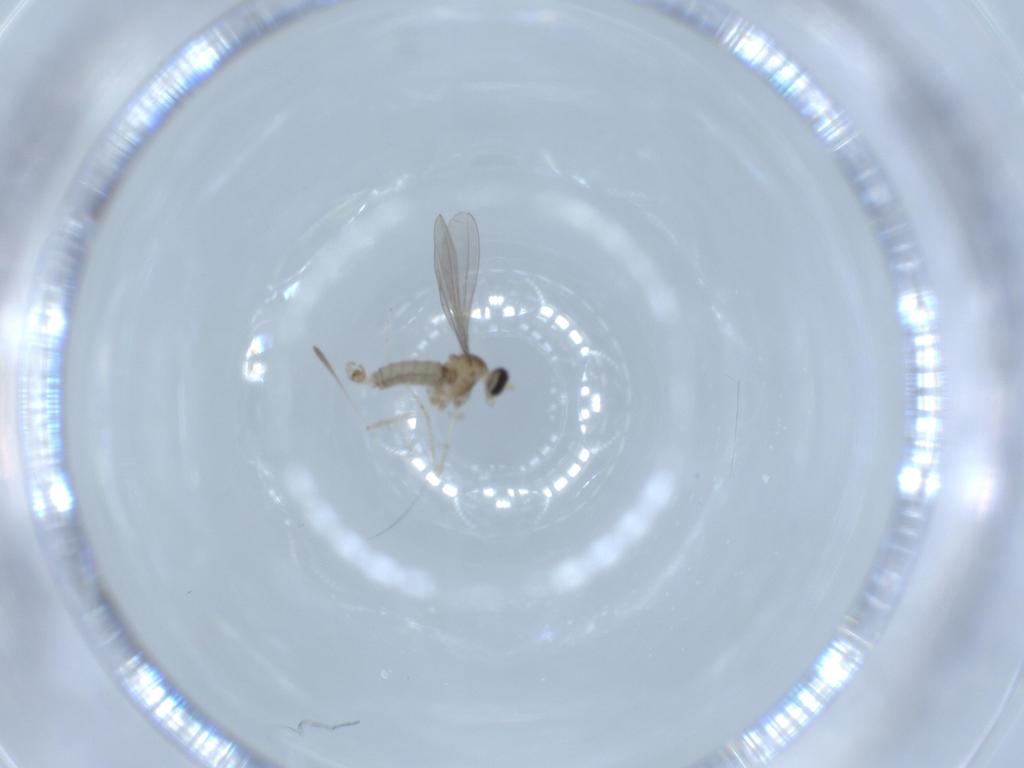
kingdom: Animalia
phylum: Arthropoda
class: Insecta
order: Diptera
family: Cecidomyiidae
